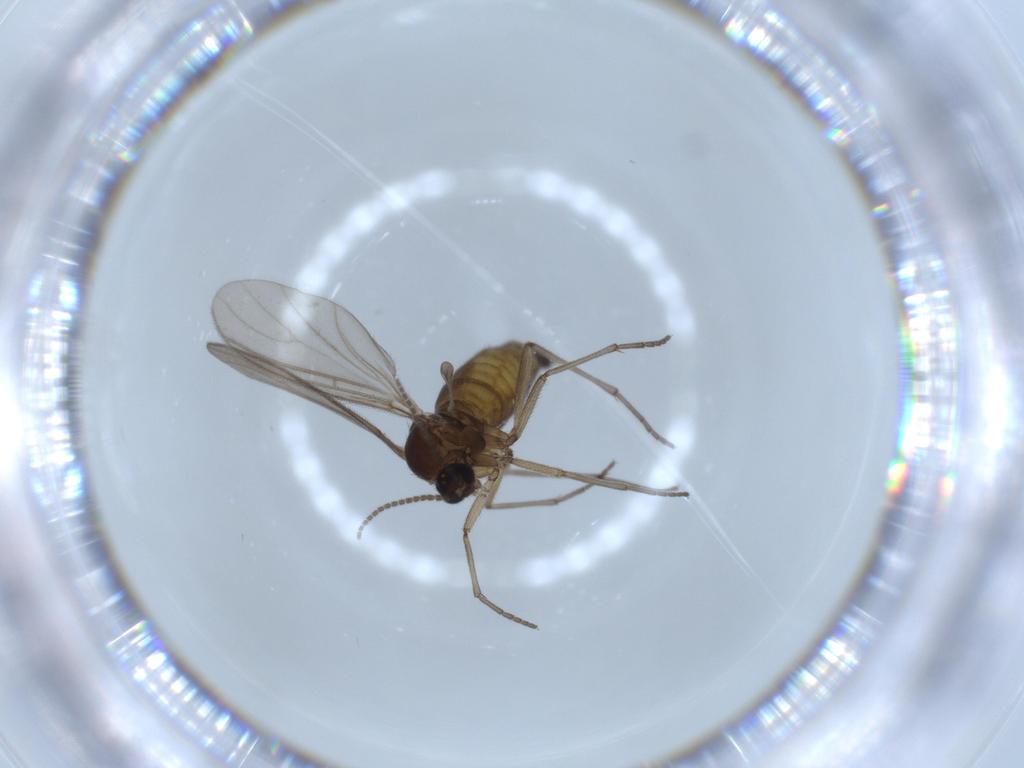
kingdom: Animalia
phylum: Arthropoda
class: Insecta
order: Diptera
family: Sciaridae
